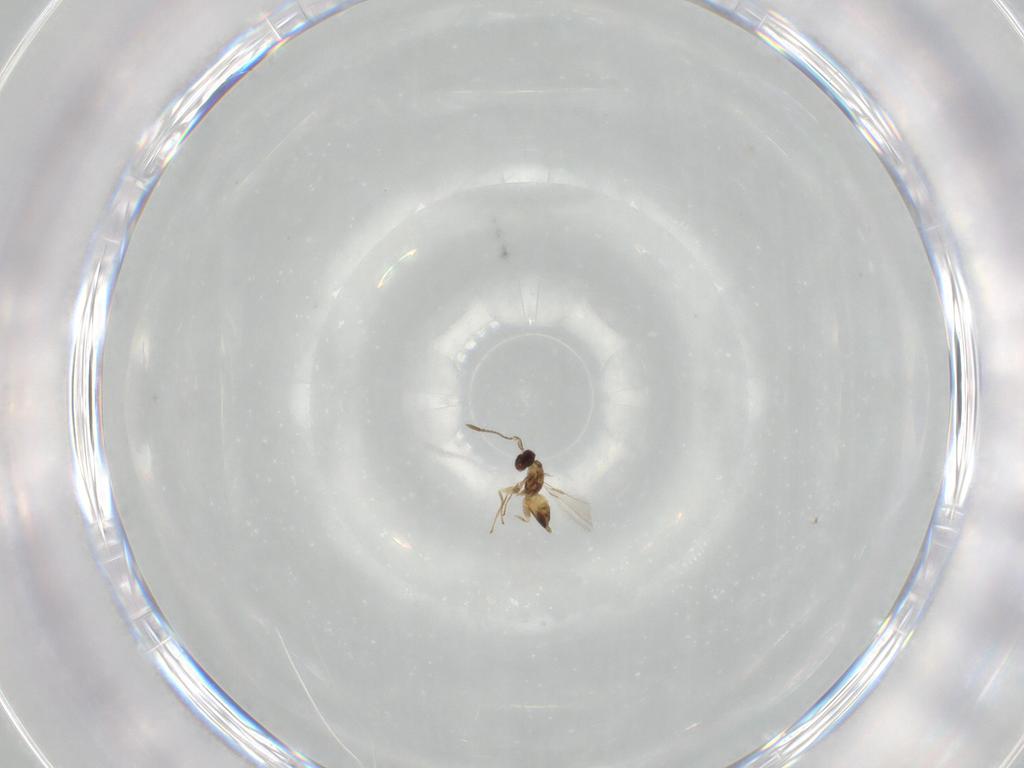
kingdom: Animalia
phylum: Arthropoda
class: Insecta
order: Hymenoptera
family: Mymaridae
